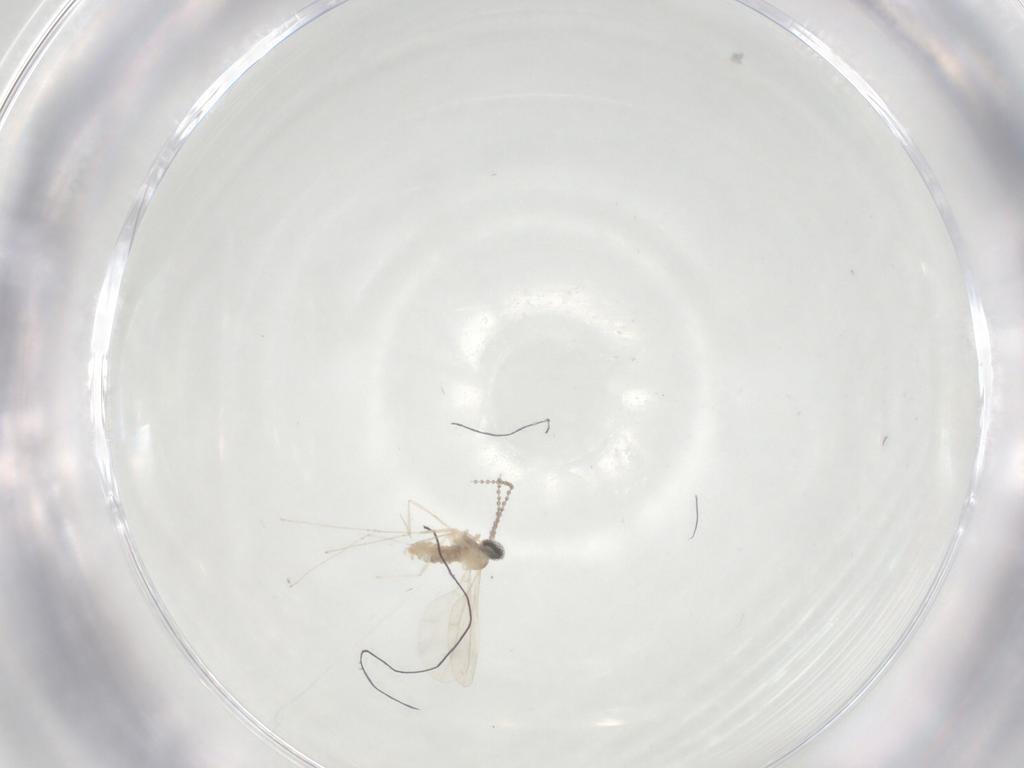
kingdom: Animalia
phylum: Arthropoda
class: Insecta
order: Diptera
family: Cecidomyiidae
